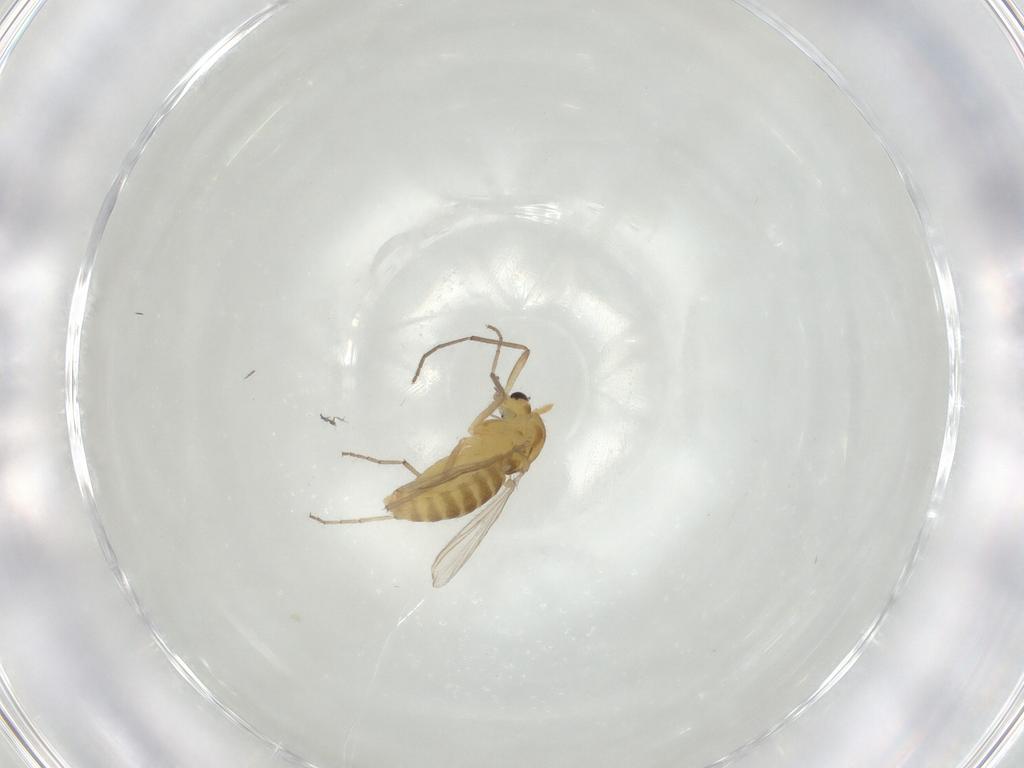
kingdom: Animalia
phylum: Arthropoda
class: Insecta
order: Diptera
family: Chironomidae
